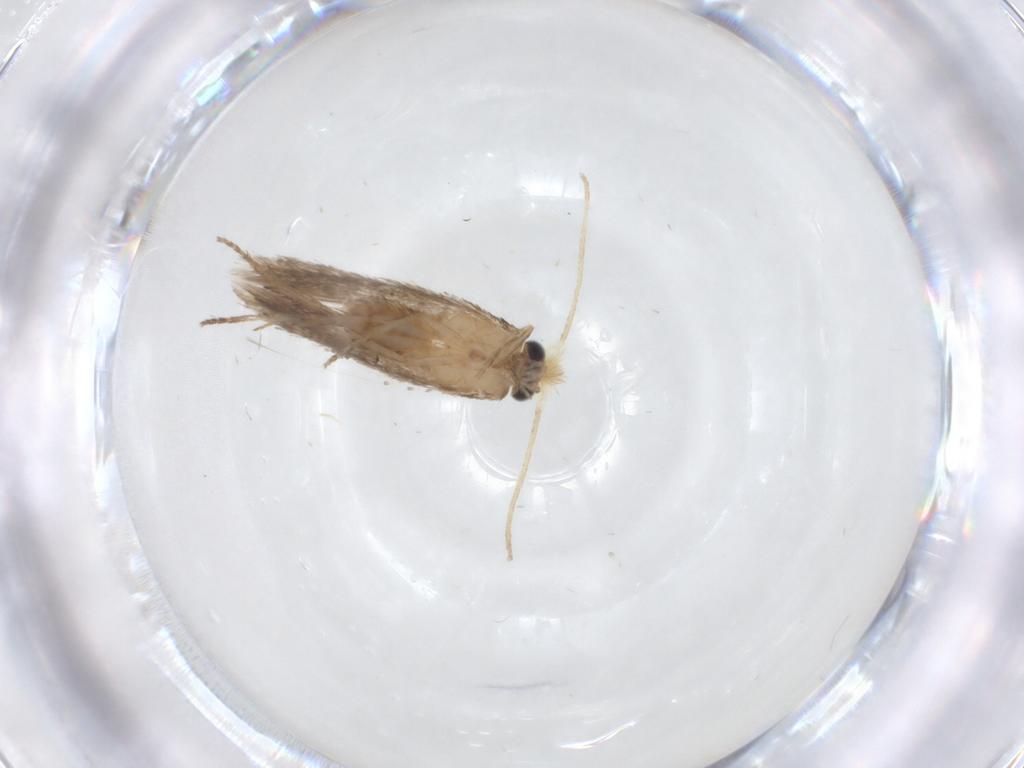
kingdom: Animalia
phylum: Arthropoda
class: Insecta
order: Lepidoptera
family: Nepticulidae
